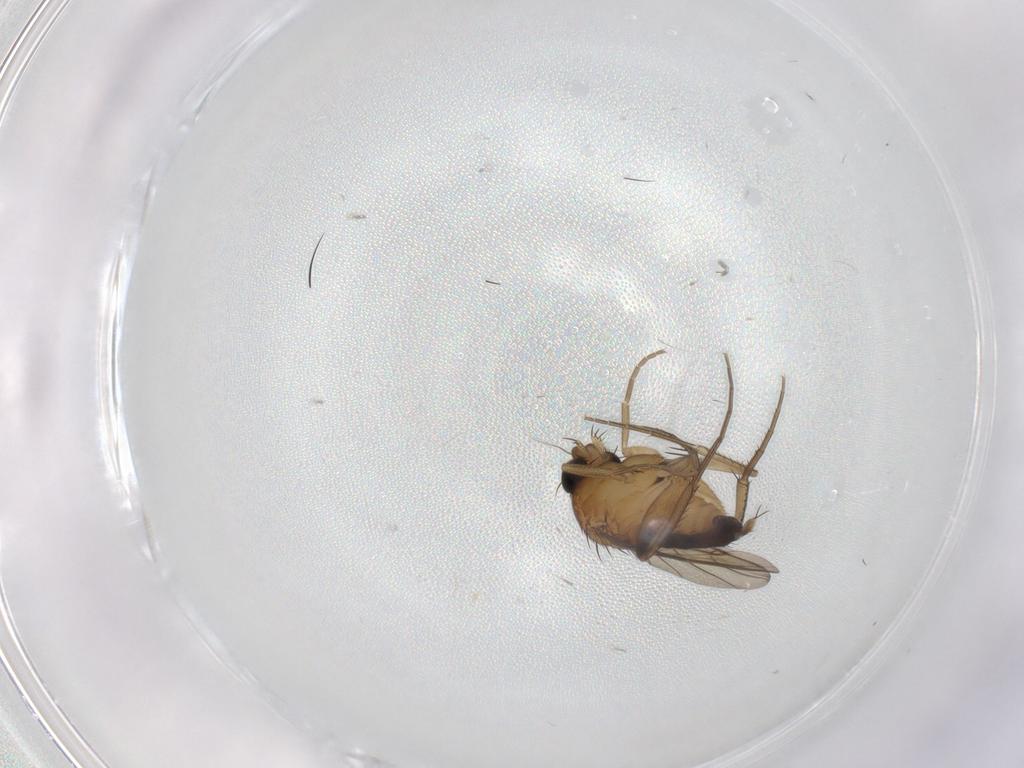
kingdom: Animalia
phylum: Arthropoda
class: Insecta
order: Diptera
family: Phoridae
